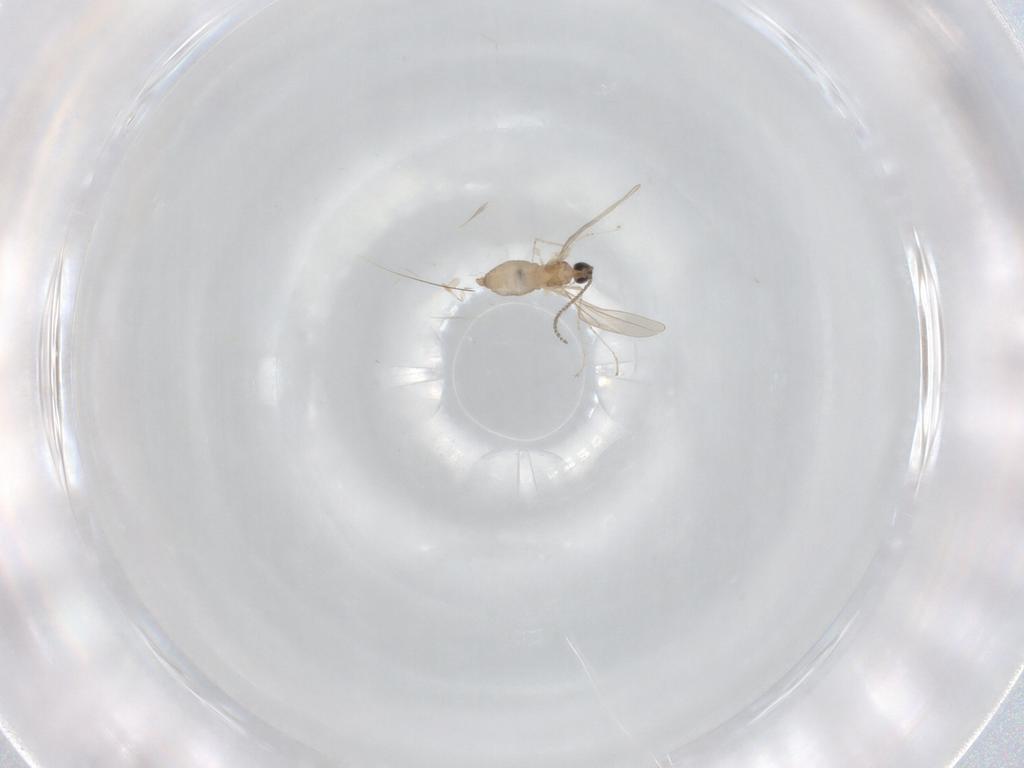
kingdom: Animalia
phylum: Arthropoda
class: Insecta
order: Diptera
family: Cecidomyiidae
